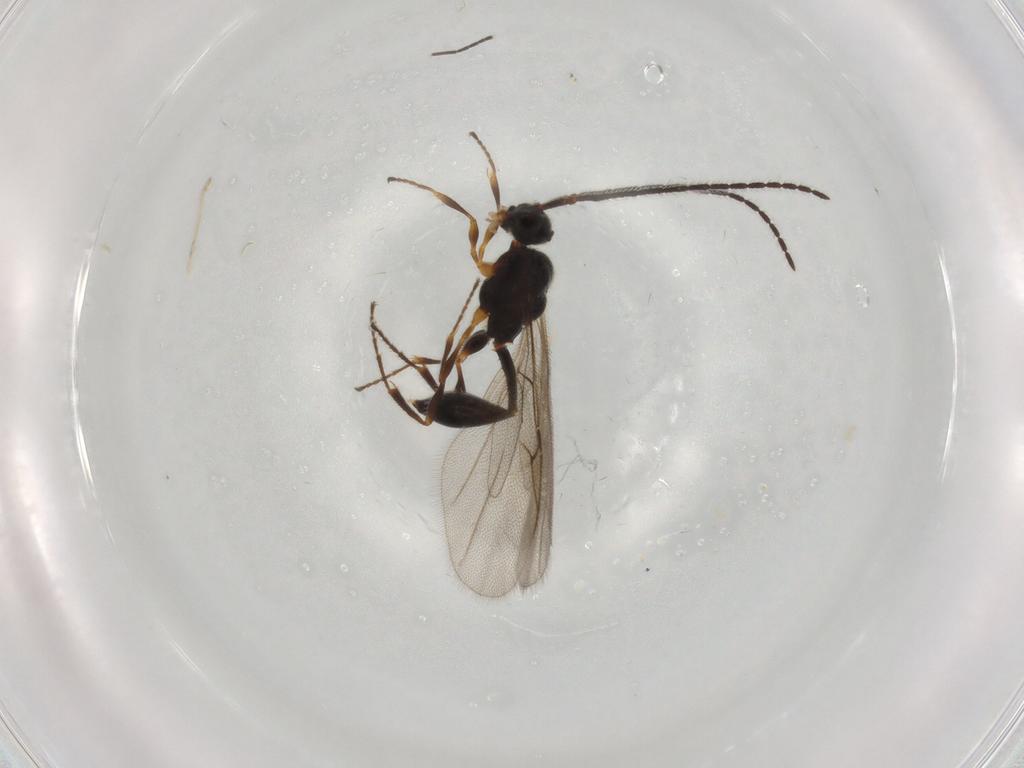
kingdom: Animalia
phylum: Arthropoda
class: Insecta
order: Hymenoptera
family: Diapriidae
